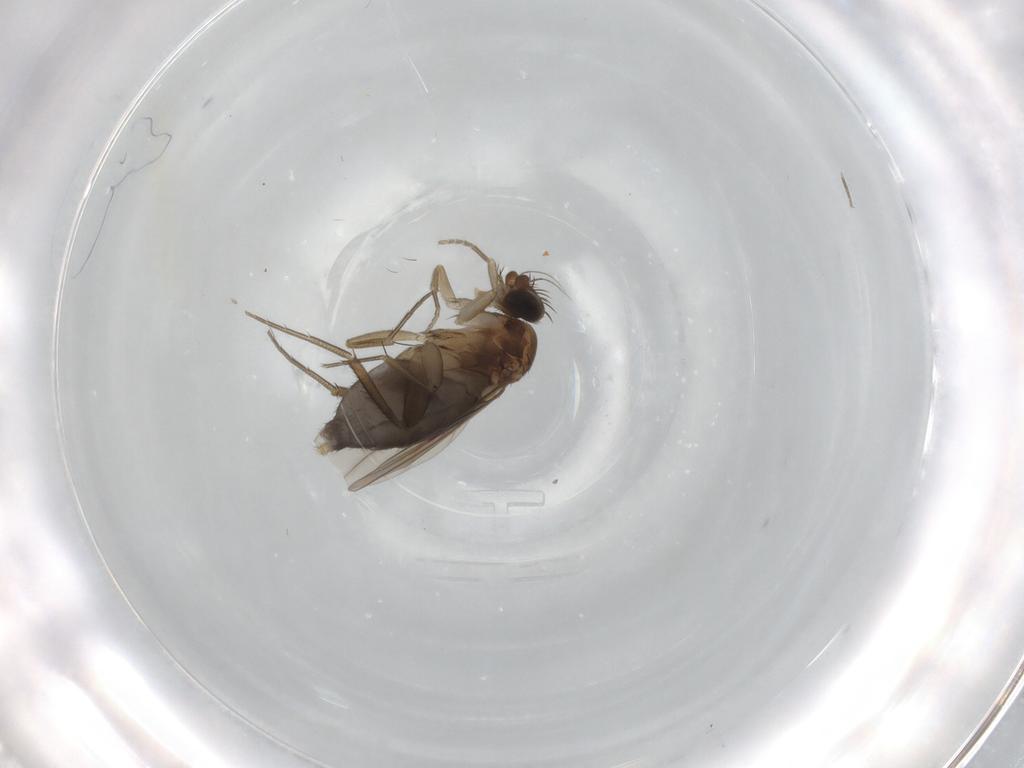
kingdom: Animalia
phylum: Arthropoda
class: Insecta
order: Diptera
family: Phoridae
